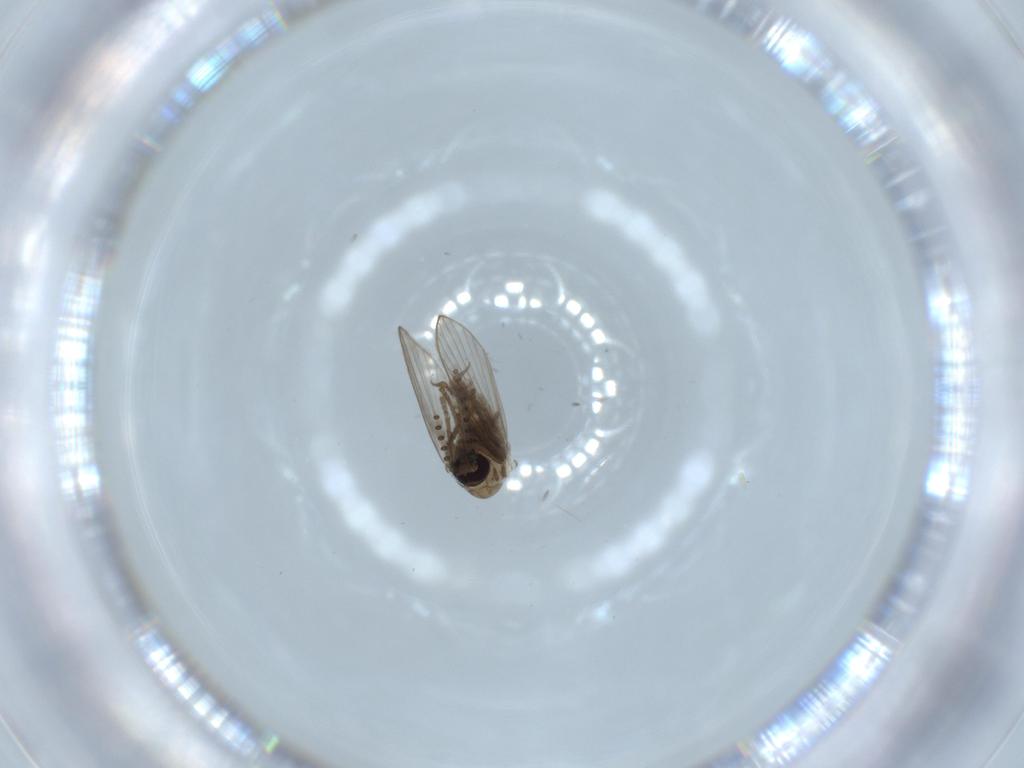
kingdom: Animalia
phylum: Arthropoda
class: Insecta
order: Diptera
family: Psychodidae
